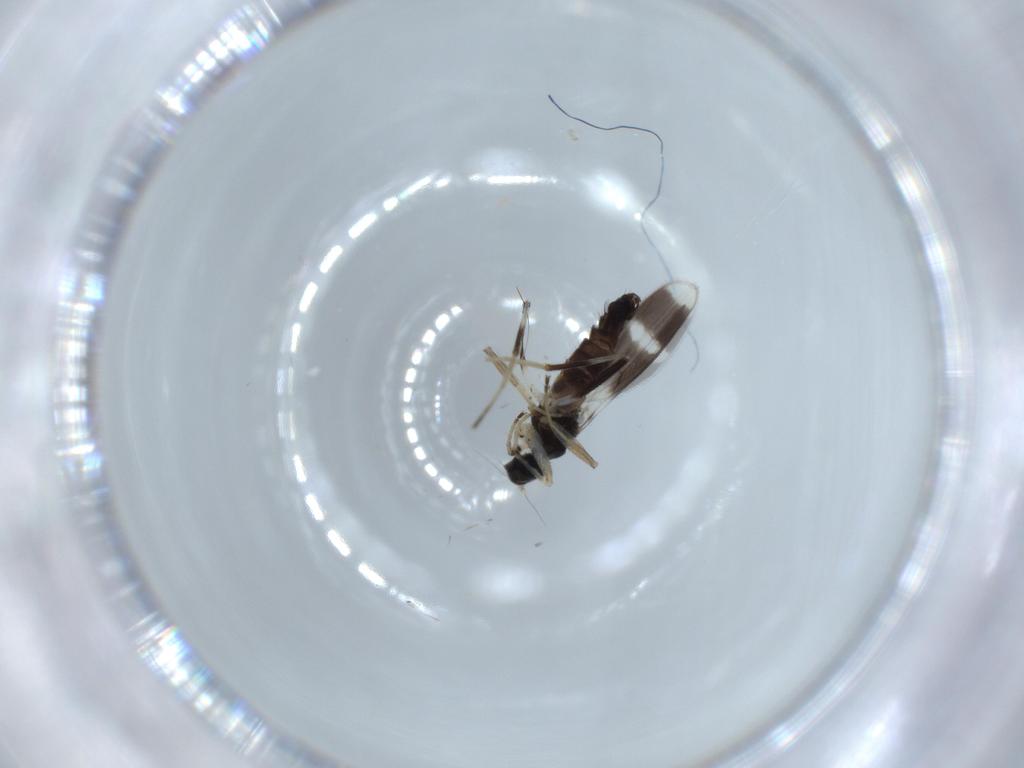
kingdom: Animalia
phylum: Arthropoda
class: Insecta
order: Diptera
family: Hybotidae
